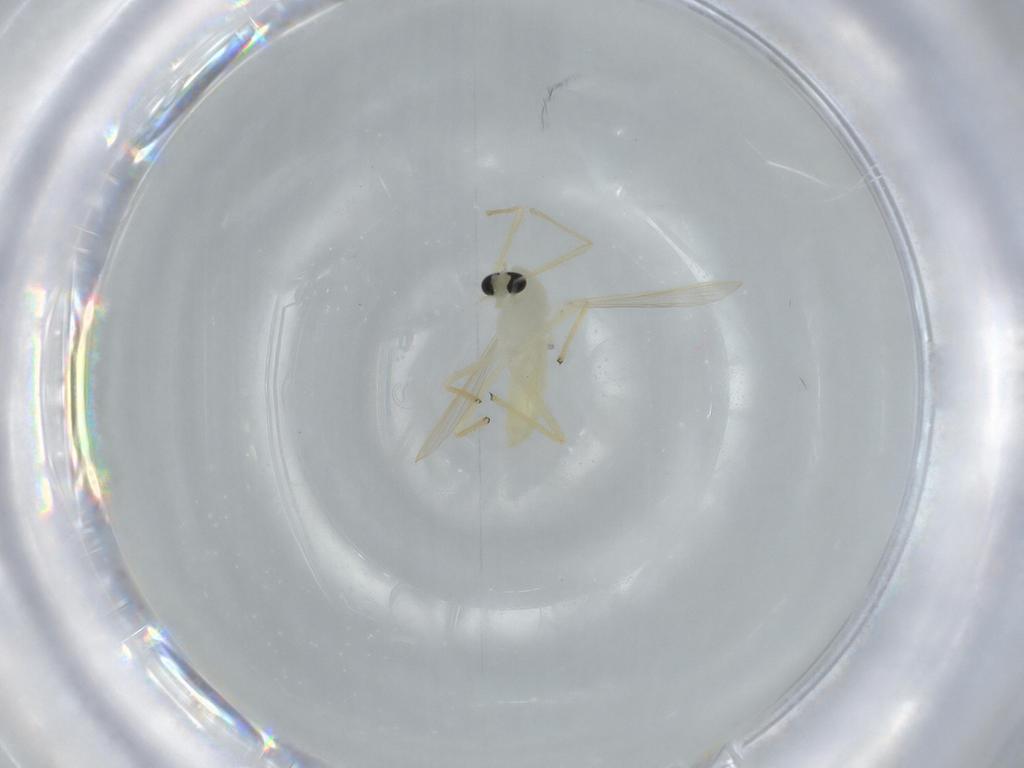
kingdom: Animalia
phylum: Arthropoda
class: Insecta
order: Diptera
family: Chironomidae
